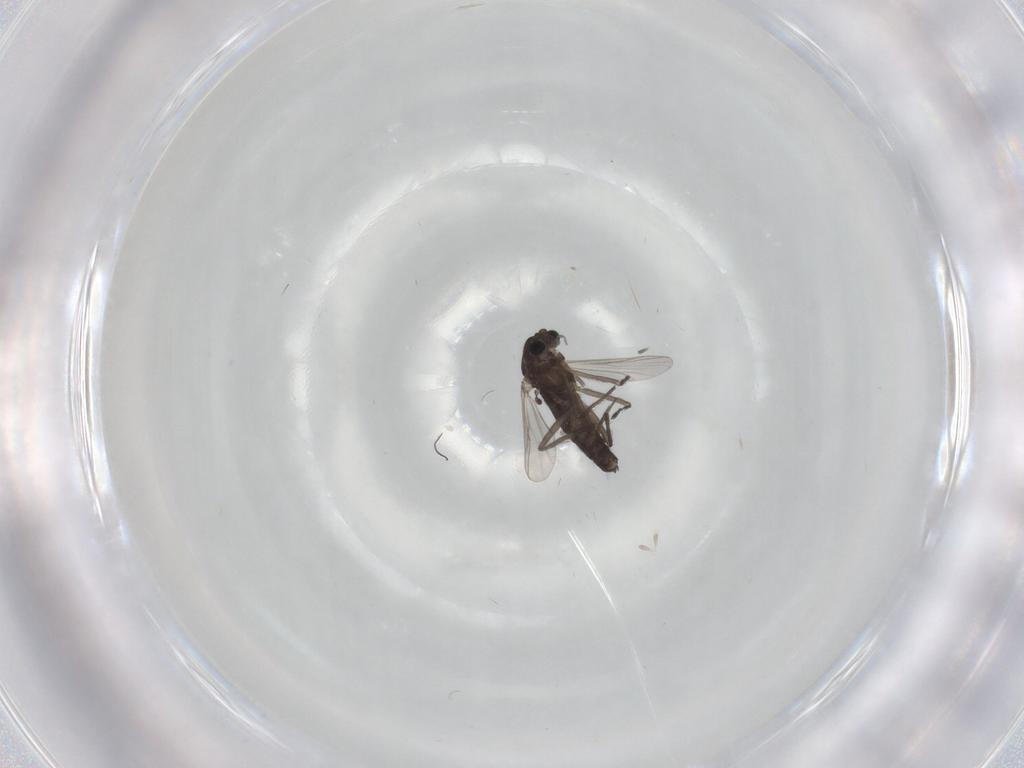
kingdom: Animalia
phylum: Arthropoda
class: Insecta
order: Diptera
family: Chironomidae
